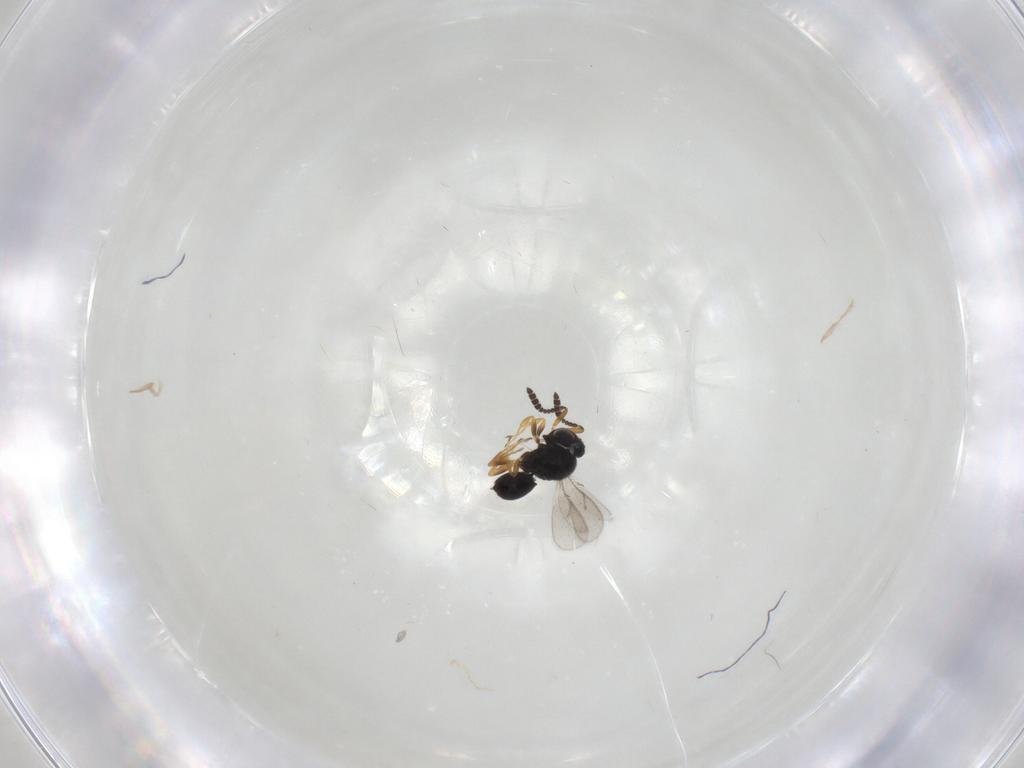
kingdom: Animalia
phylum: Arthropoda
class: Insecta
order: Hymenoptera
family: Scelionidae
